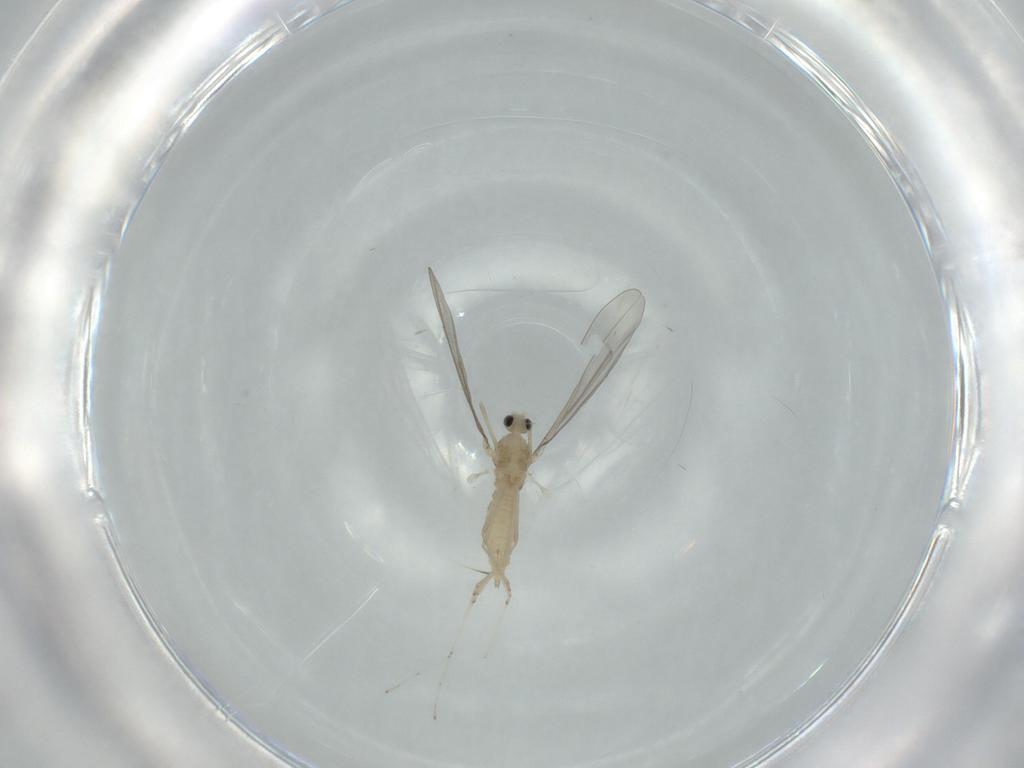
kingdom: Animalia
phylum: Arthropoda
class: Insecta
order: Diptera
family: Cecidomyiidae
